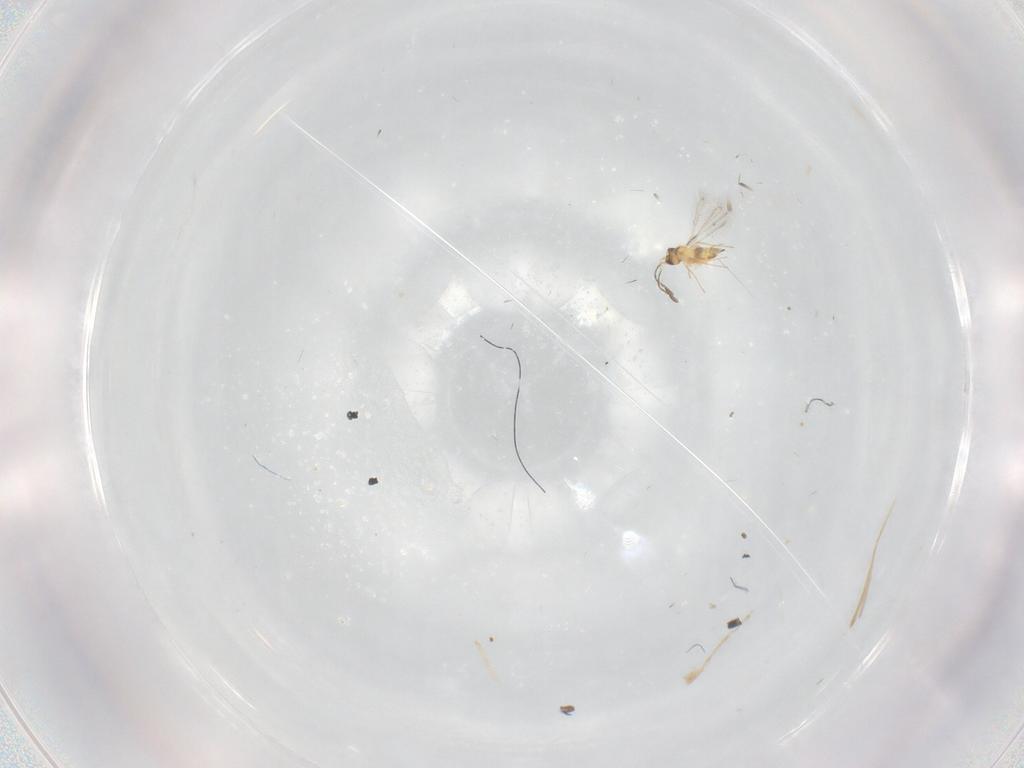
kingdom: Animalia
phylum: Arthropoda
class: Insecta
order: Hymenoptera
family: Mymaridae
